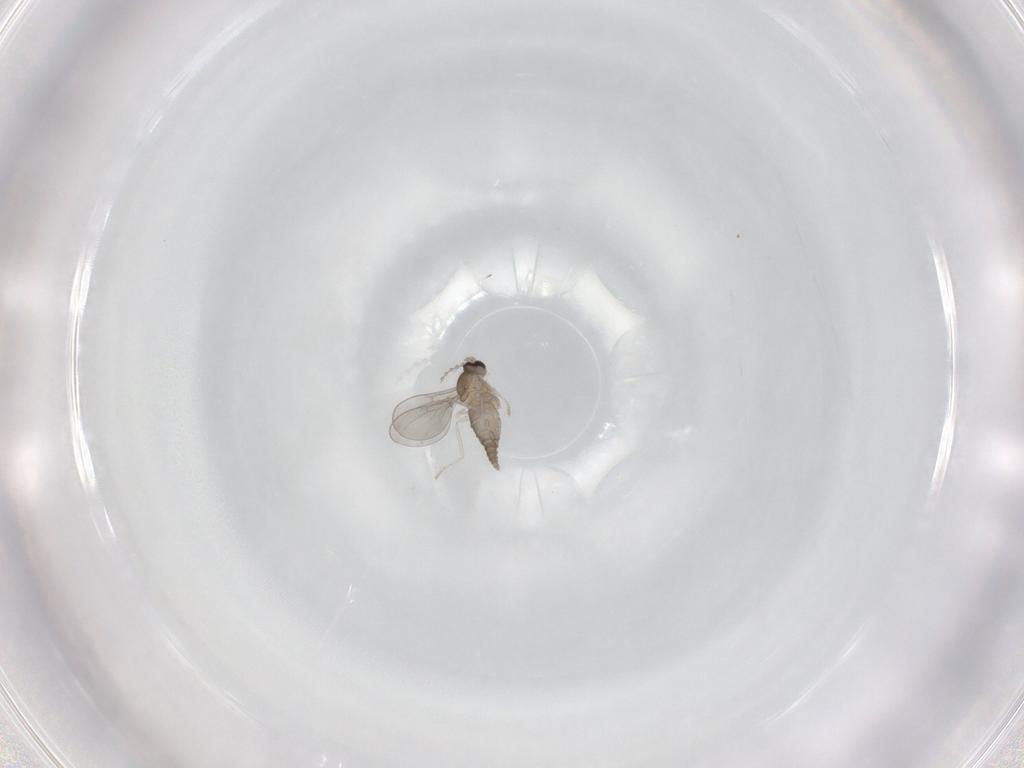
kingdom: Animalia
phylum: Arthropoda
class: Insecta
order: Diptera
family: Cecidomyiidae
